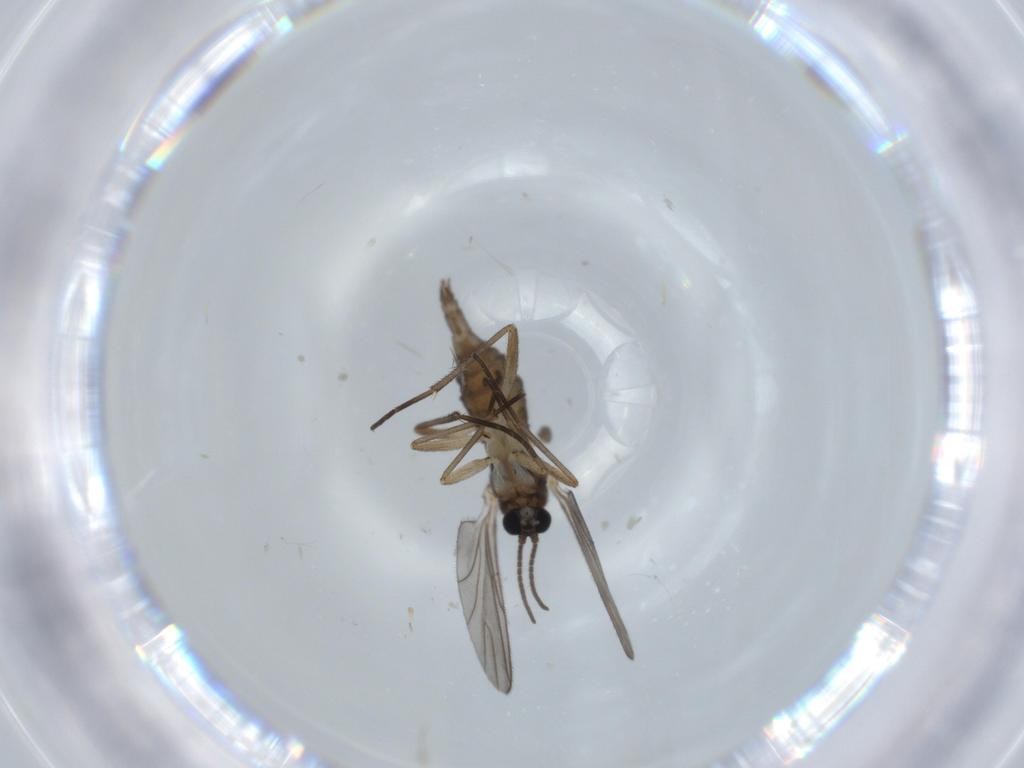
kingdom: Animalia
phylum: Arthropoda
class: Insecta
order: Diptera
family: Sciaridae
